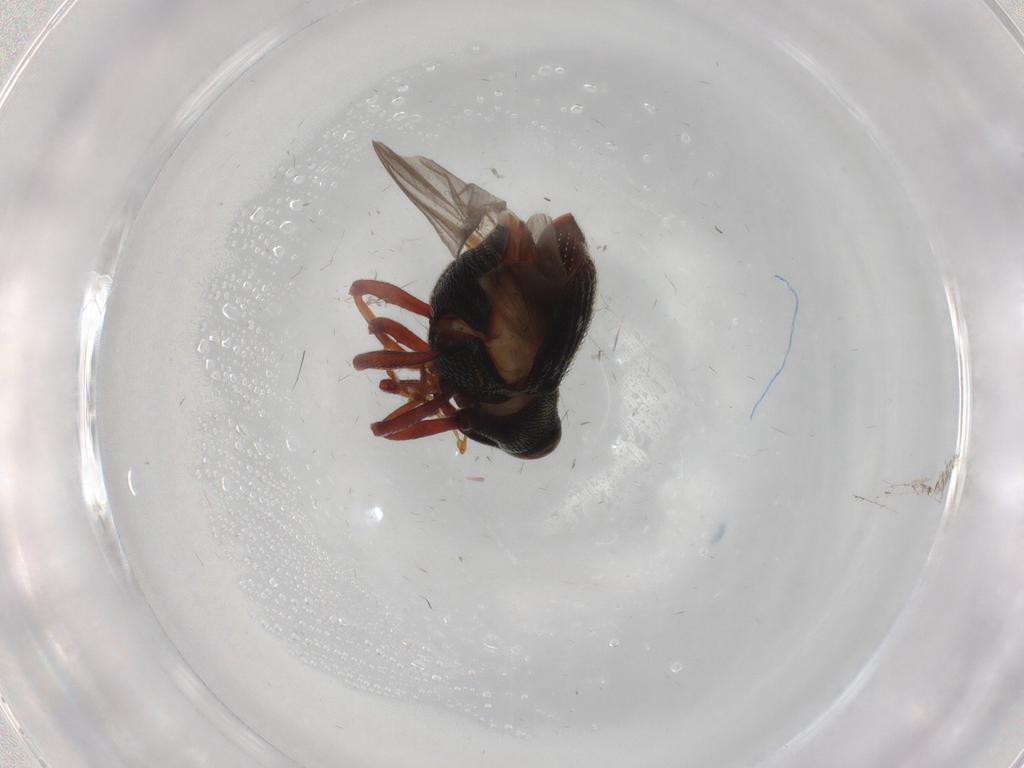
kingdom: Animalia
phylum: Arthropoda
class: Insecta
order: Coleoptera
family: Curculionidae
